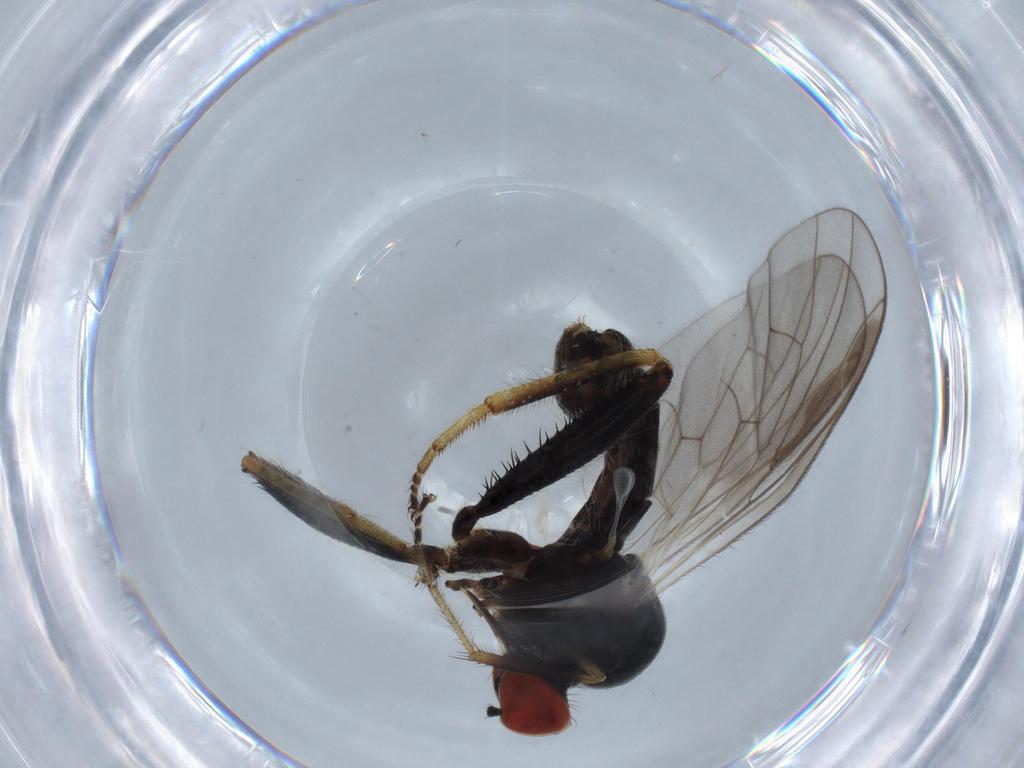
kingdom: Animalia
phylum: Arthropoda
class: Insecta
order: Diptera
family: Hybotidae
